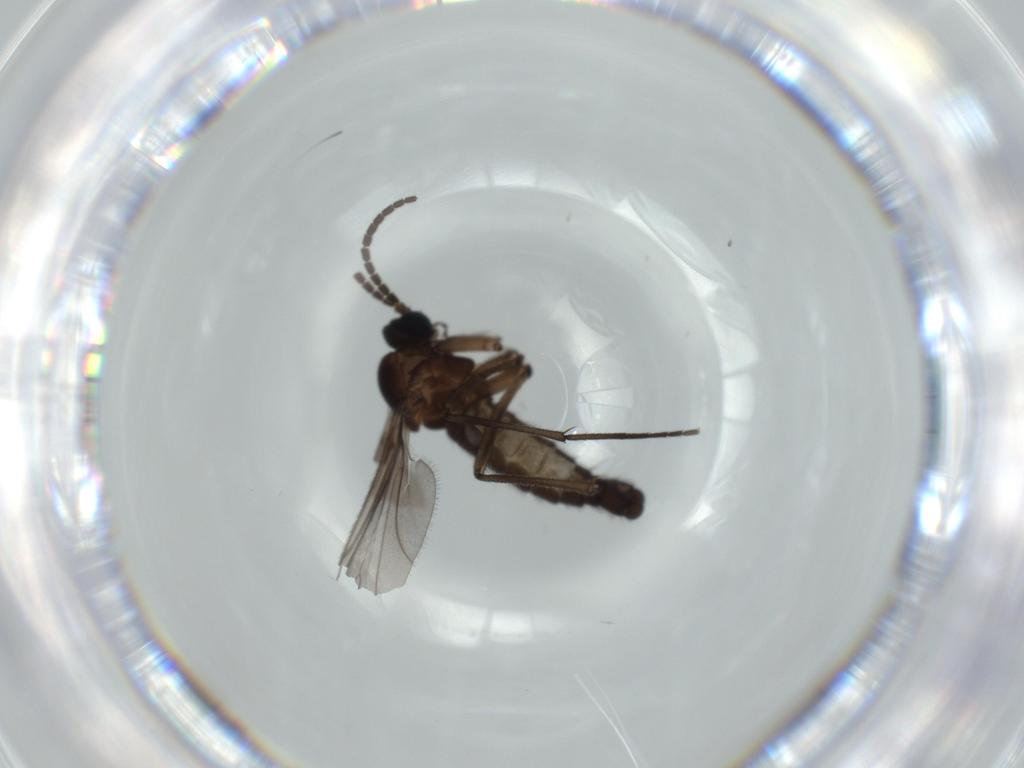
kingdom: Animalia
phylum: Arthropoda
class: Insecta
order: Diptera
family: Sciaridae
